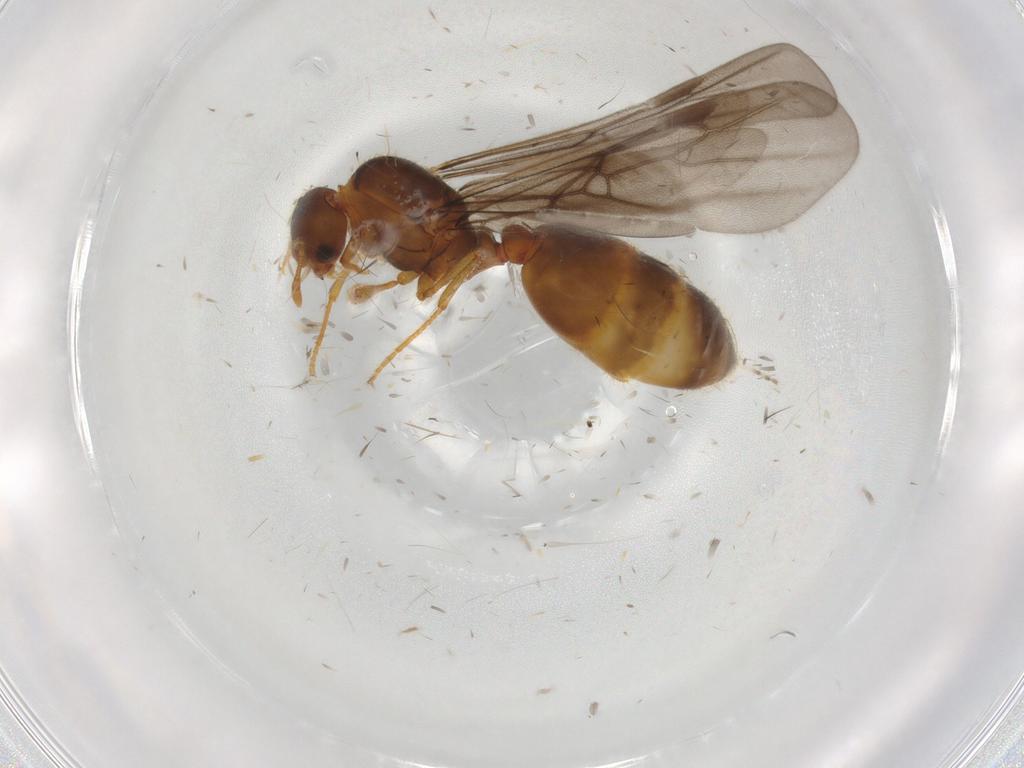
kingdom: Animalia
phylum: Arthropoda
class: Insecta
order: Hymenoptera
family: Formicidae
